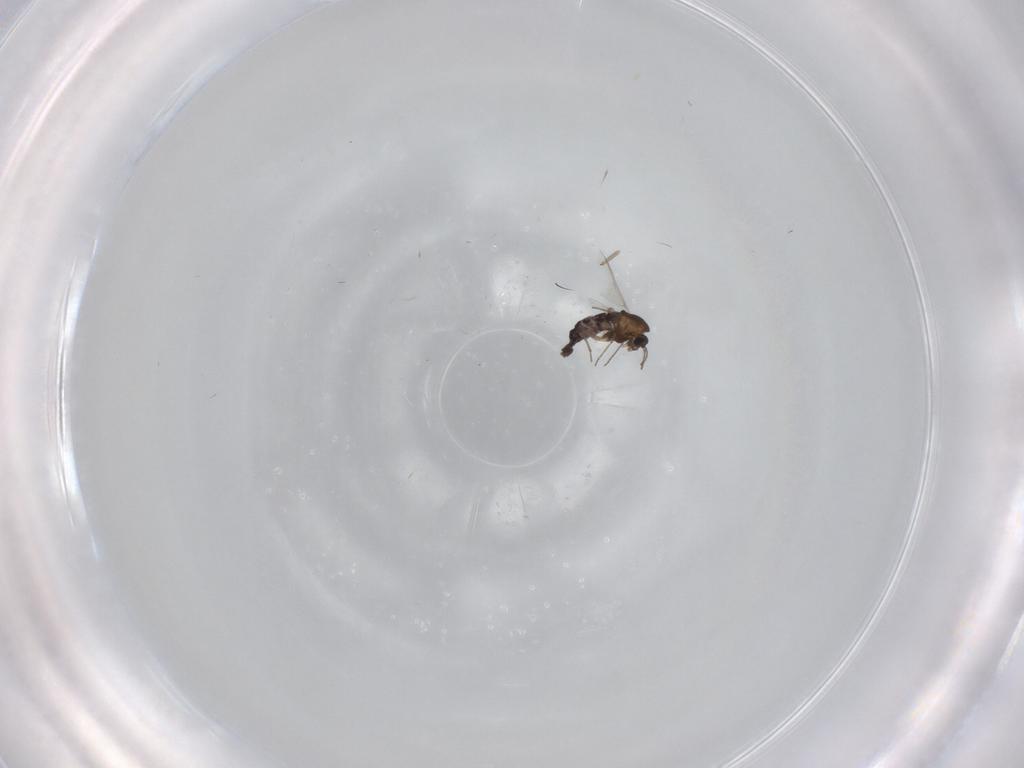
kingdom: Animalia
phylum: Arthropoda
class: Insecta
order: Diptera
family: Chironomidae
